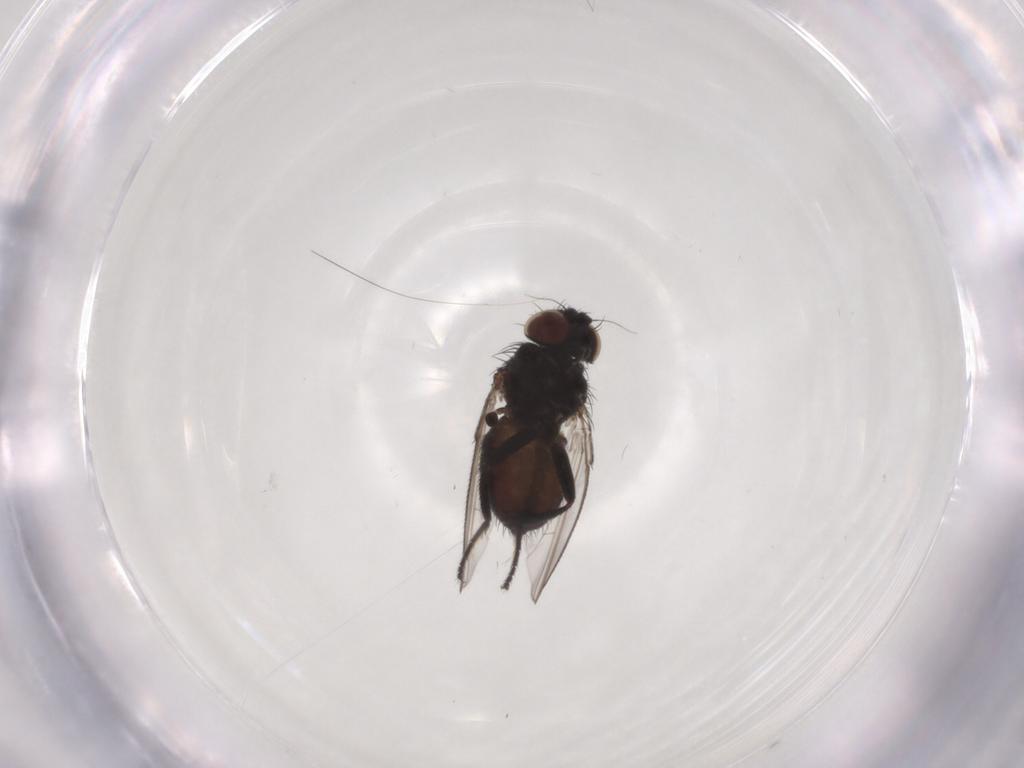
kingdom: Animalia
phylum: Arthropoda
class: Insecta
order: Diptera
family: Milichiidae
